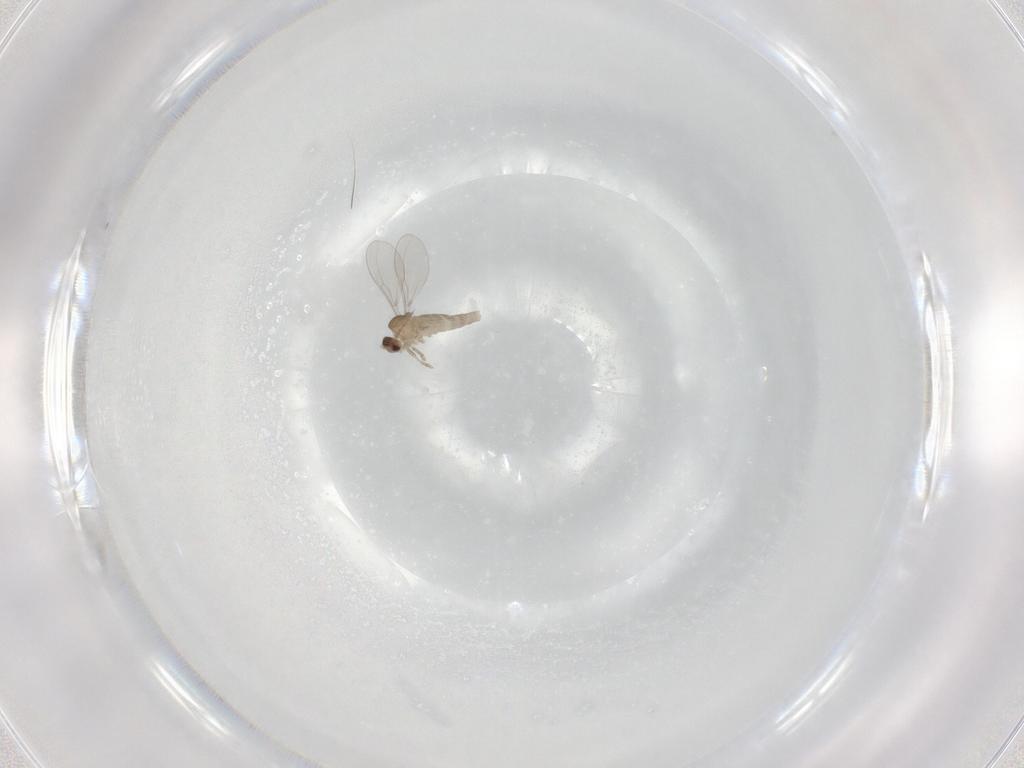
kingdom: Animalia
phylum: Arthropoda
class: Insecta
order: Diptera
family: Cecidomyiidae
